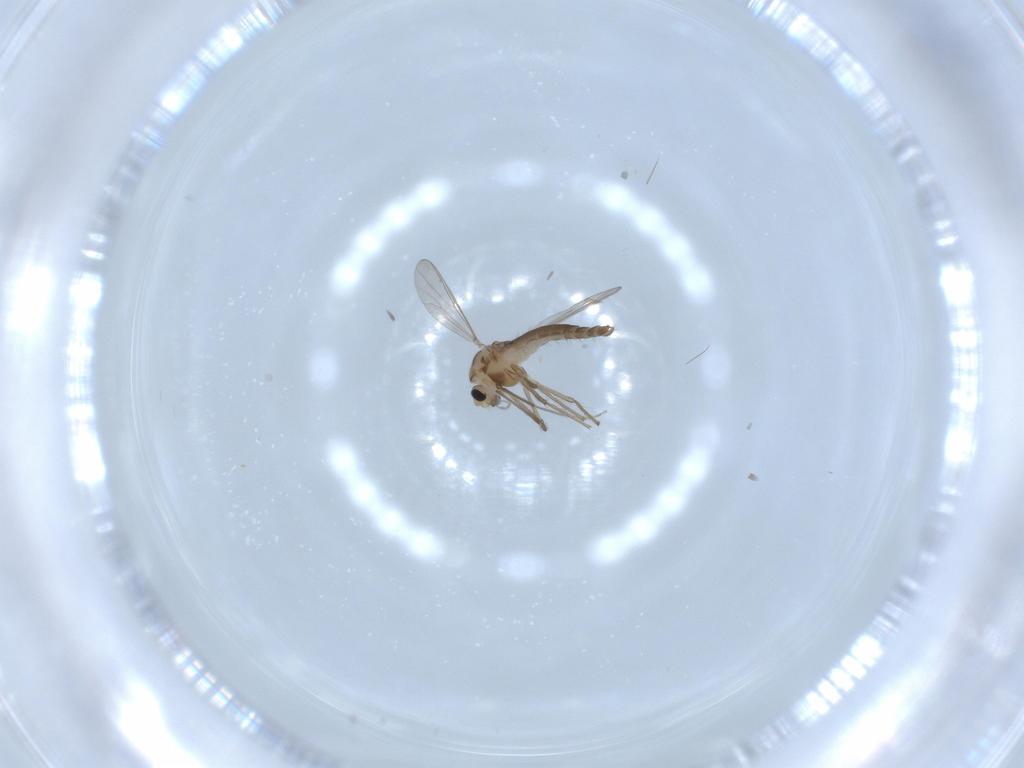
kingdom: Animalia
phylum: Arthropoda
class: Insecta
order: Diptera
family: Chironomidae
